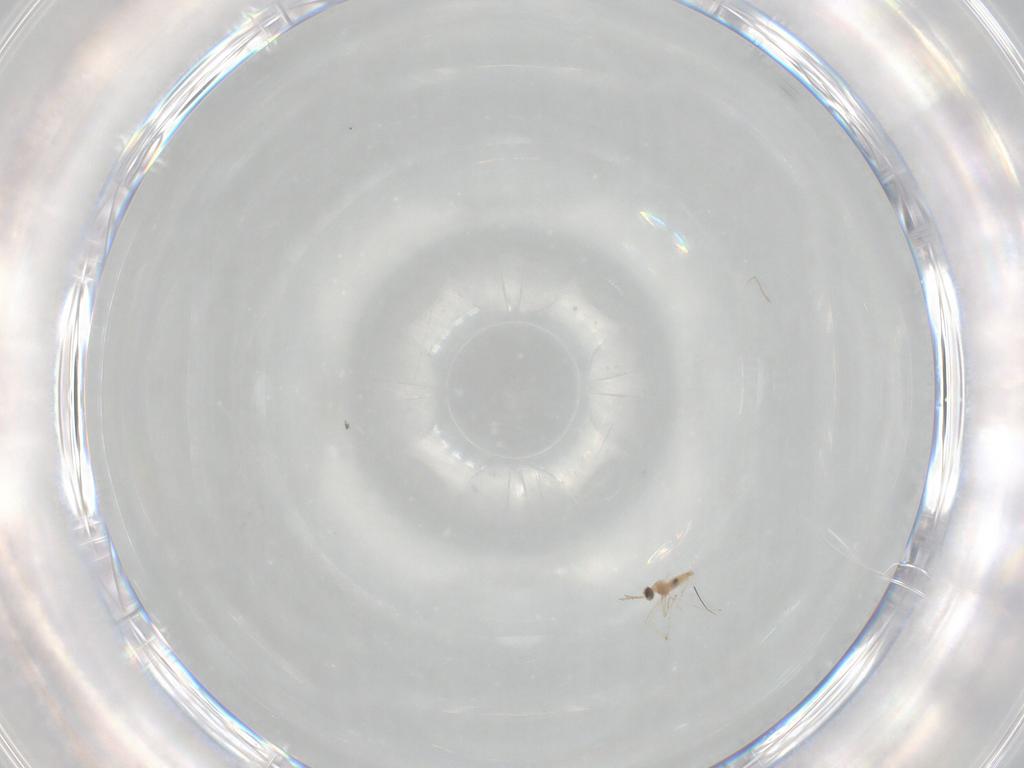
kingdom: Animalia
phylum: Arthropoda
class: Insecta
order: Diptera
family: Cecidomyiidae
